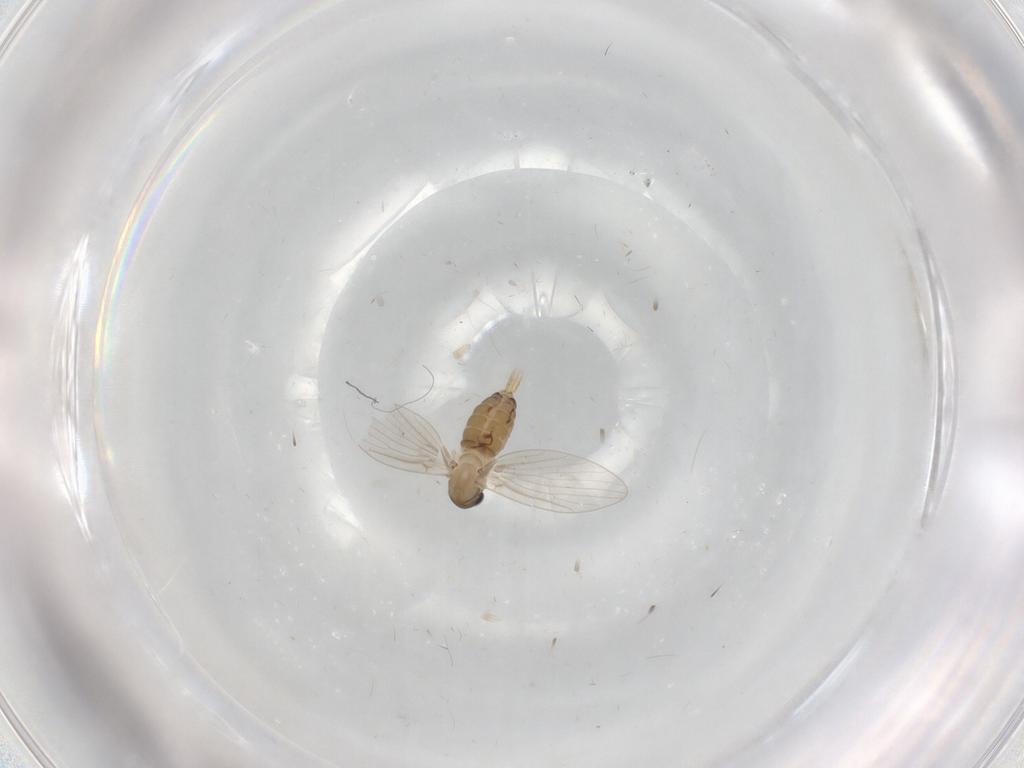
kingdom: Animalia
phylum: Arthropoda
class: Insecta
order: Diptera
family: Psychodidae
